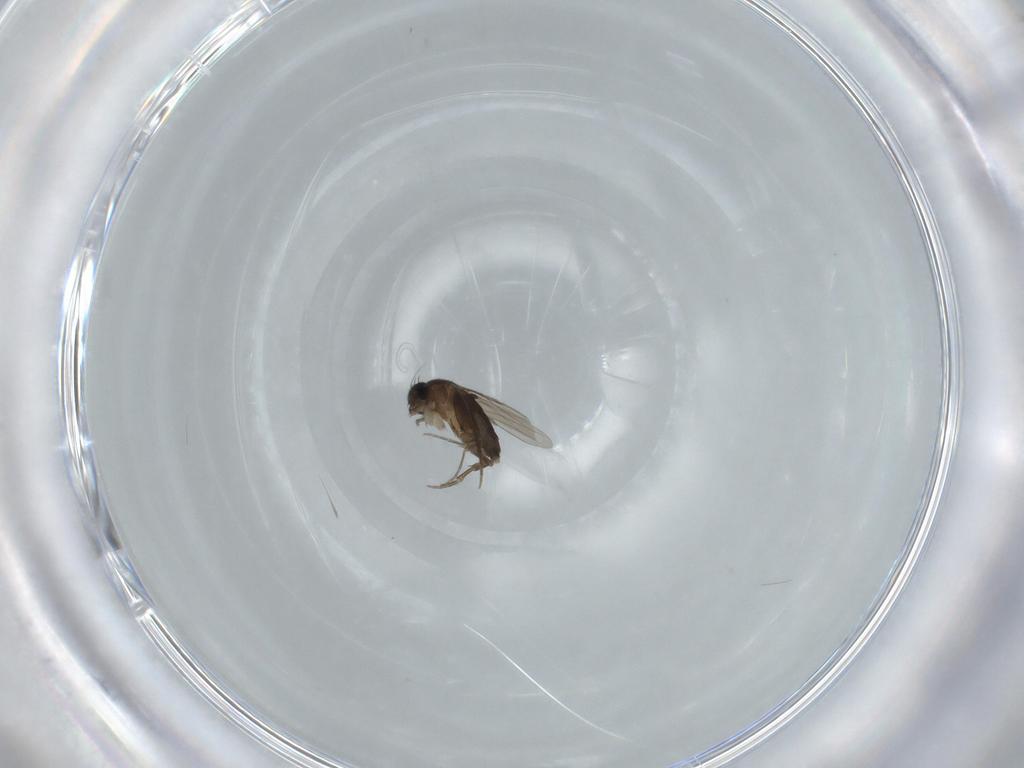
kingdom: Animalia
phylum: Arthropoda
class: Insecta
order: Diptera
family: Phoridae
